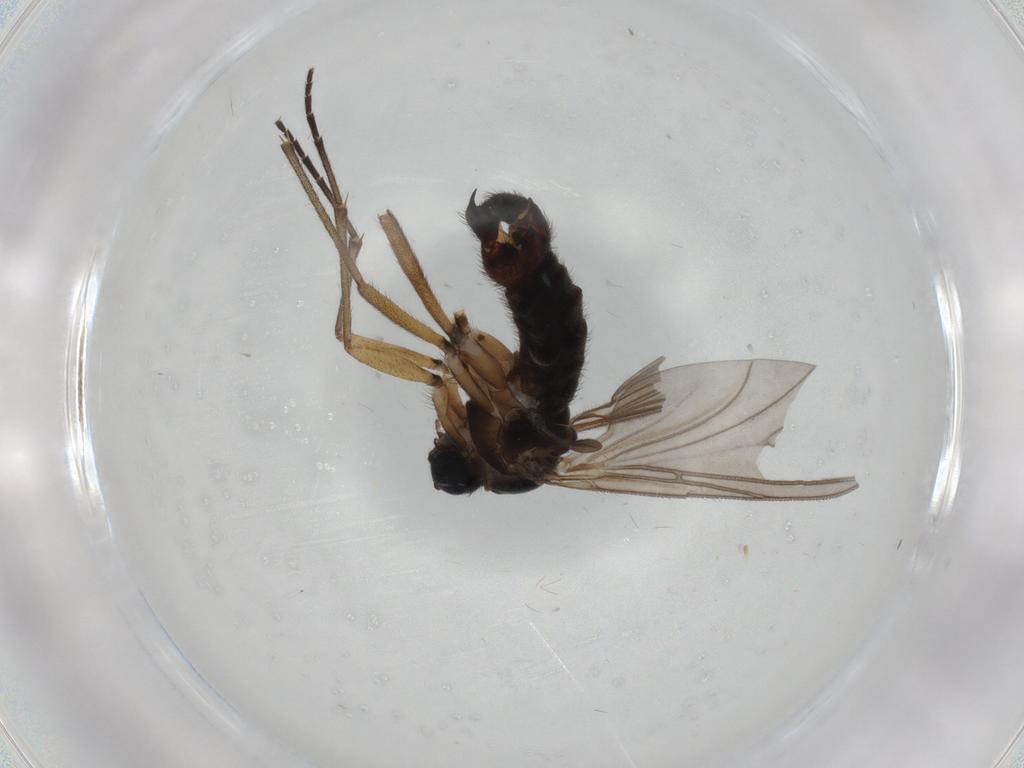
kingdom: Animalia
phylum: Arthropoda
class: Insecta
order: Diptera
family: Sciaridae
